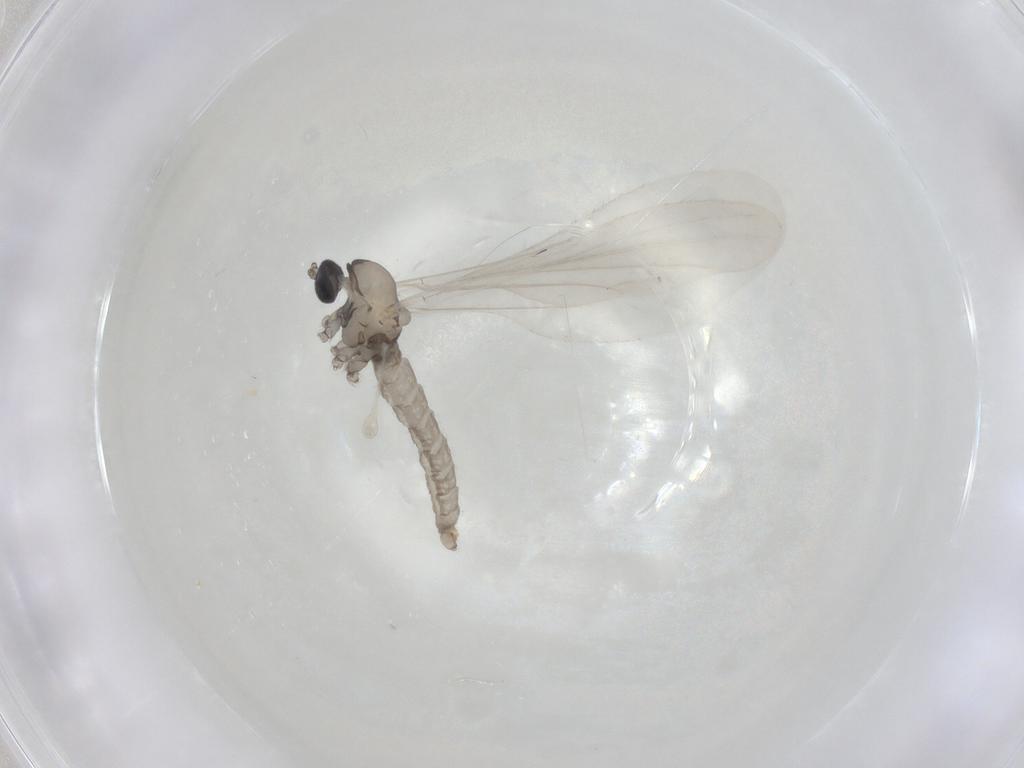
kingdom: Animalia
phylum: Arthropoda
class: Insecta
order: Diptera
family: Cecidomyiidae
